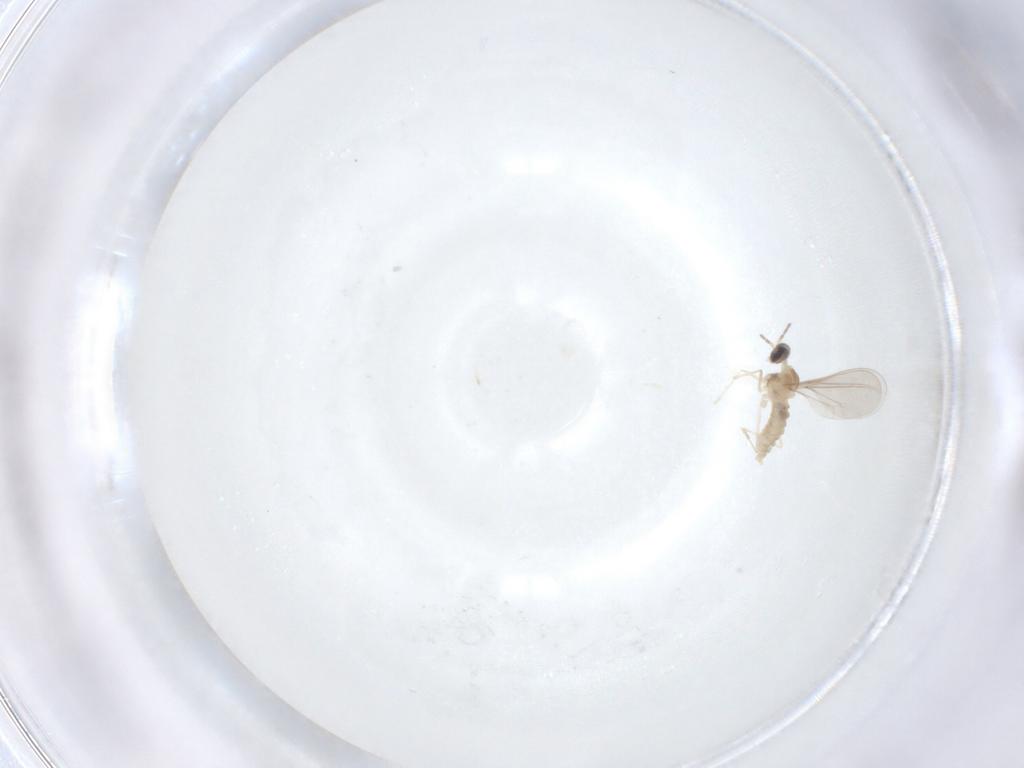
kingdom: Animalia
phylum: Arthropoda
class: Insecta
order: Diptera
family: Cecidomyiidae
